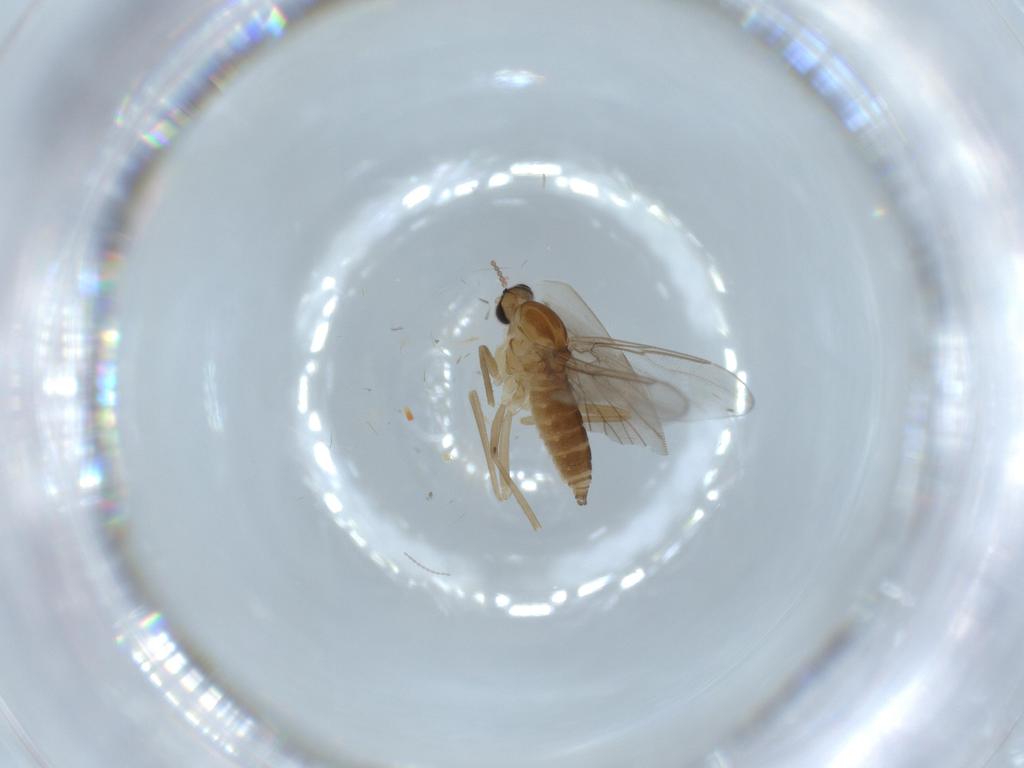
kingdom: Animalia
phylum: Arthropoda
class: Insecta
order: Diptera
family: Cecidomyiidae
